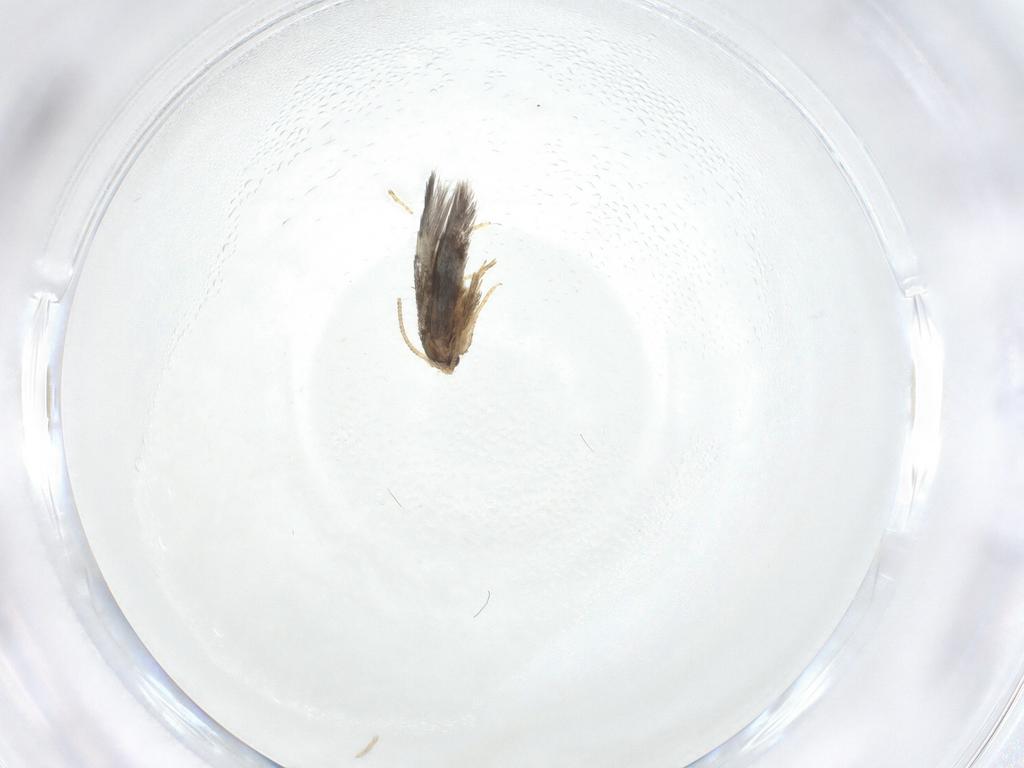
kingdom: Animalia
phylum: Arthropoda
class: Insecta
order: Lepidoptera
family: Nepticulidae
